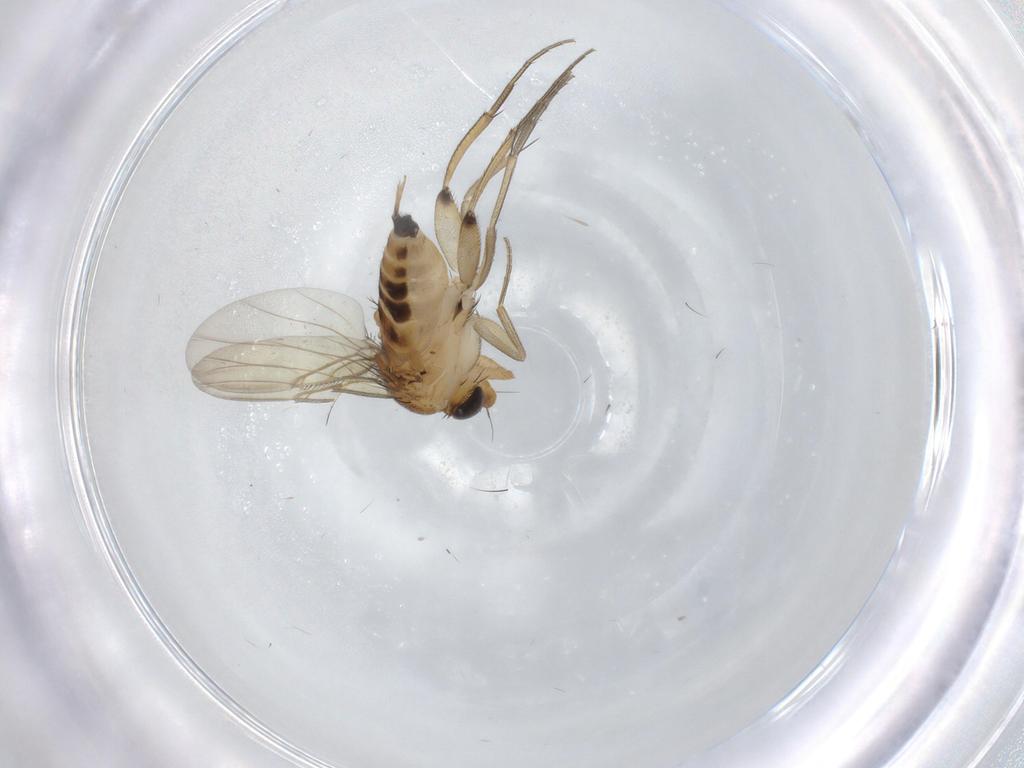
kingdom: Animalia
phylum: Arthropoda
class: Insecta
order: Diptera
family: Phoridae
